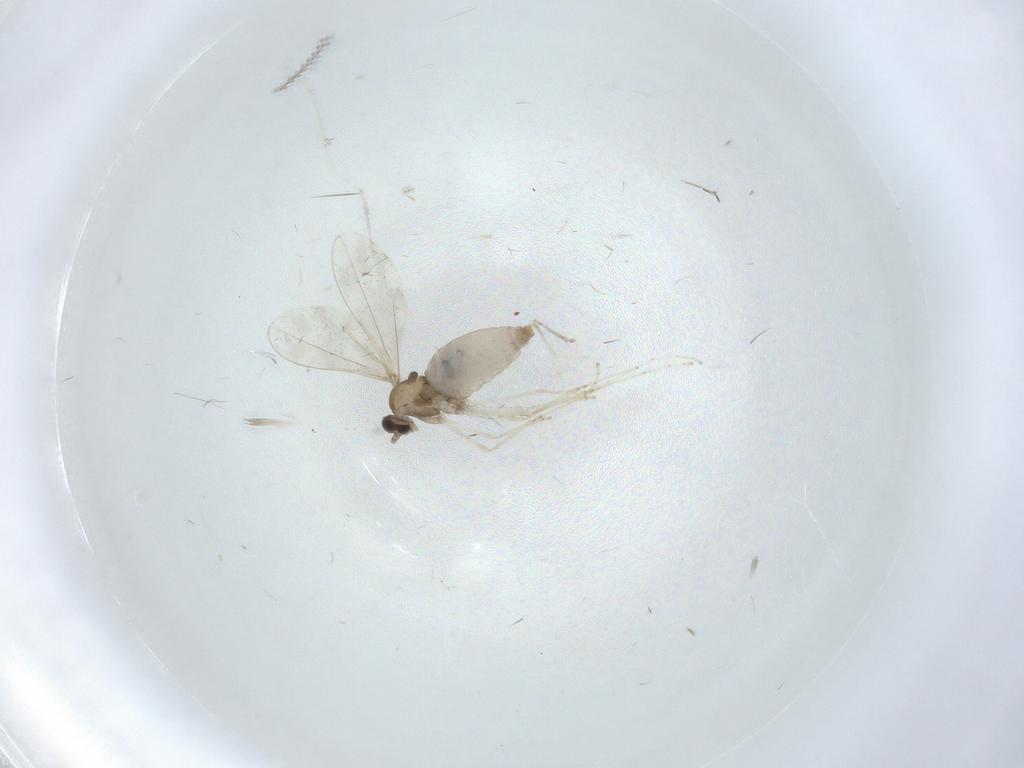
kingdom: Animalia
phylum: Arthropoda
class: Insecta
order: Diptera
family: Cecidomyiidae
